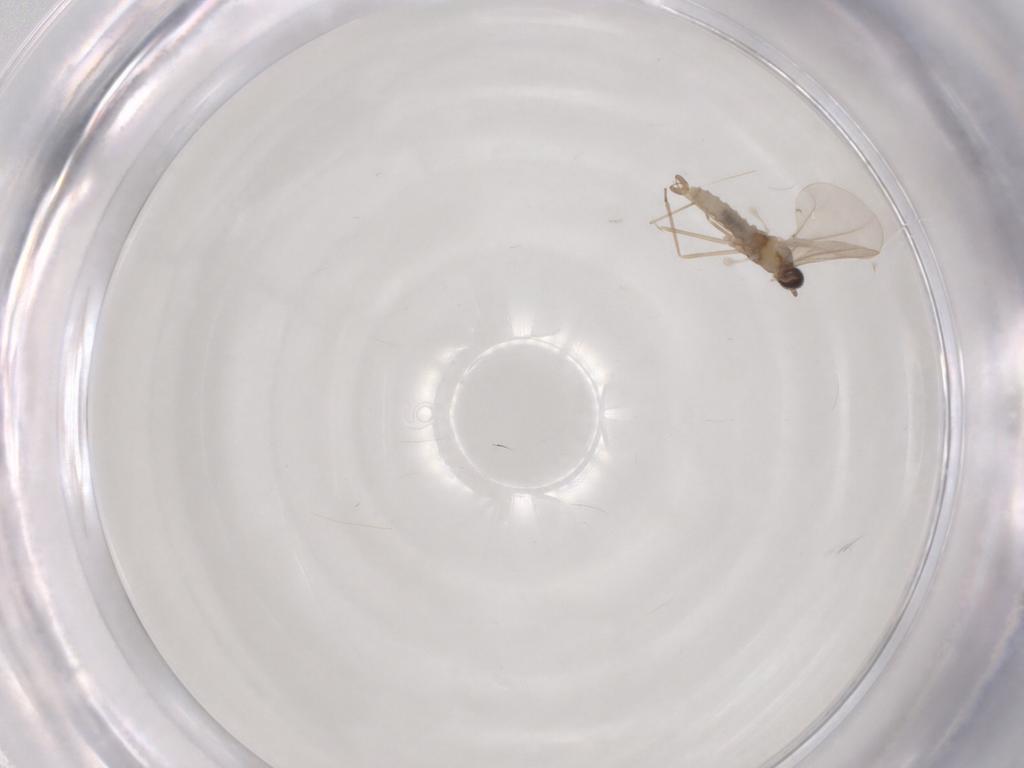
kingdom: Animalia
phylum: Arthropoda
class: Insecta
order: Diptera
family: Cecidomyiidae
